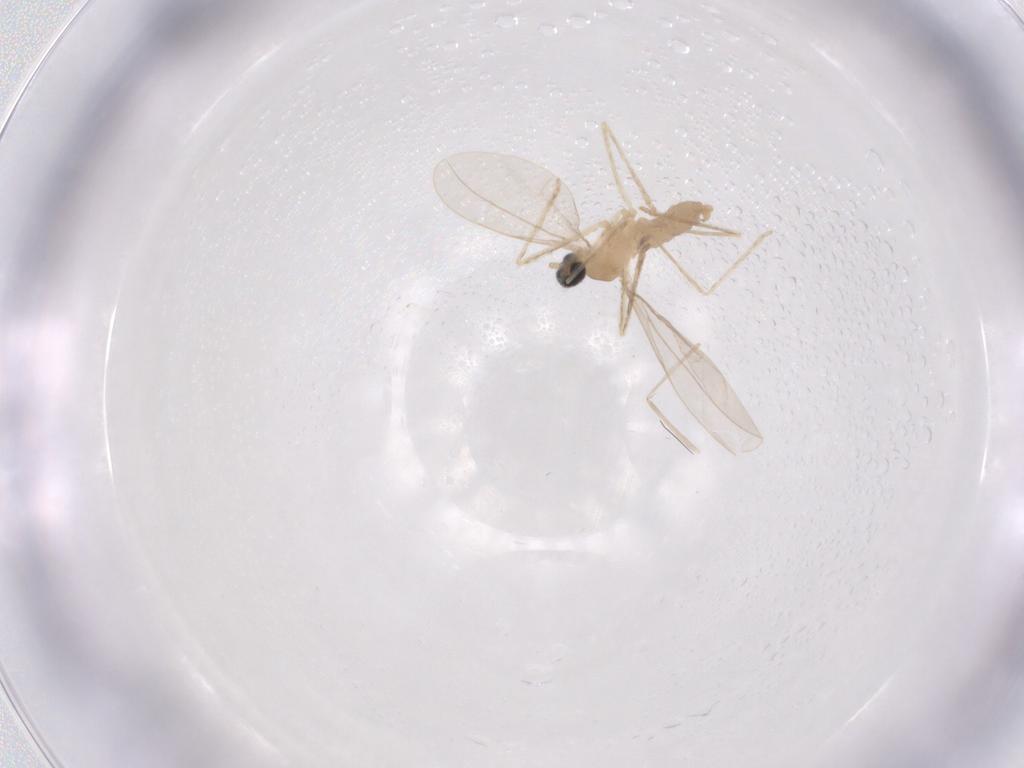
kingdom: Animalia
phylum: Arthropoda
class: Insecta
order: Diptera
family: Cecidomyiidae
